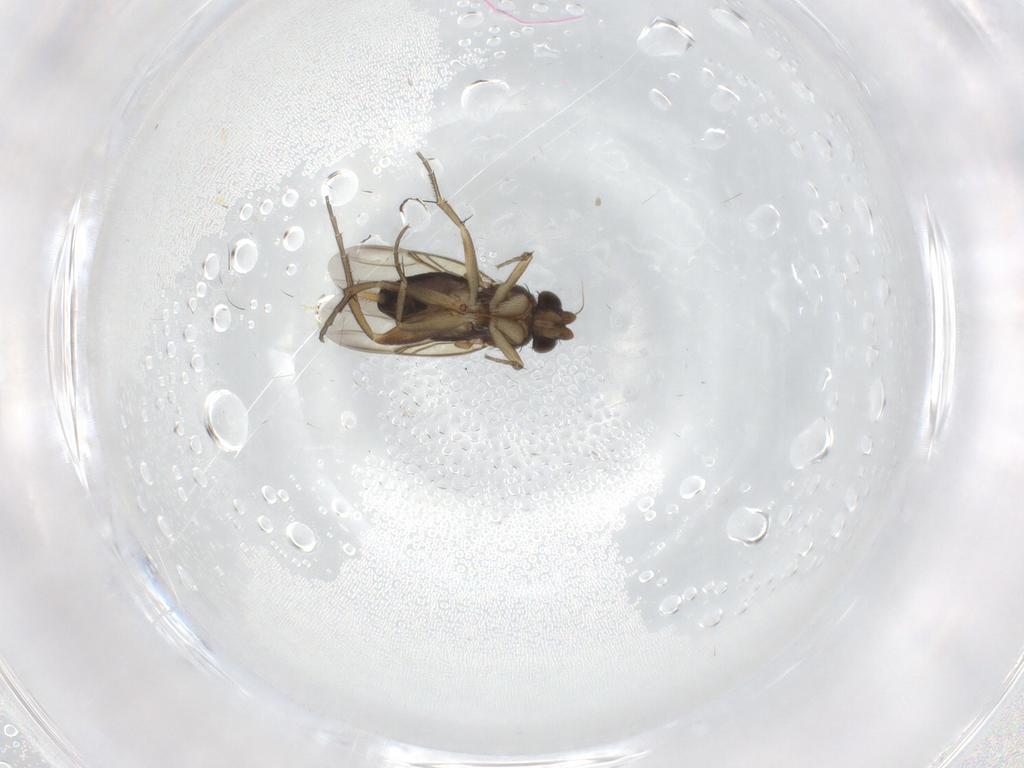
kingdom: Animalia
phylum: Arthropoda
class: Insecta
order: Diptera
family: Phoridae
